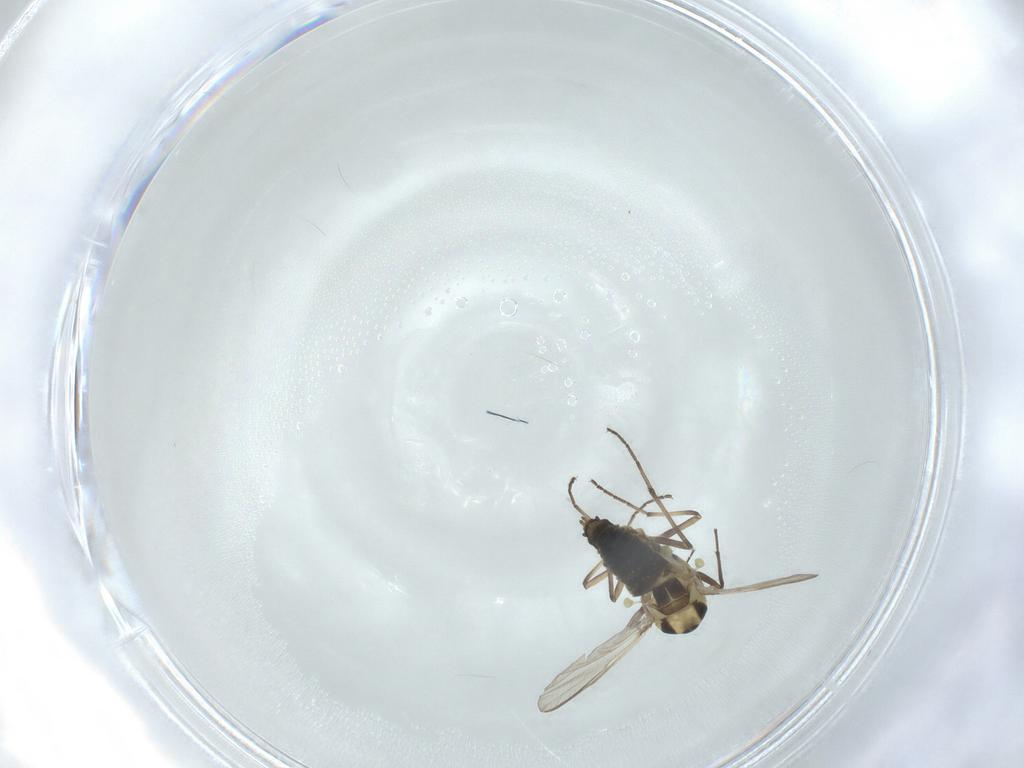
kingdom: Animalia
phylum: Arthropoda
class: Insecta
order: Diptera
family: Chironomidae
